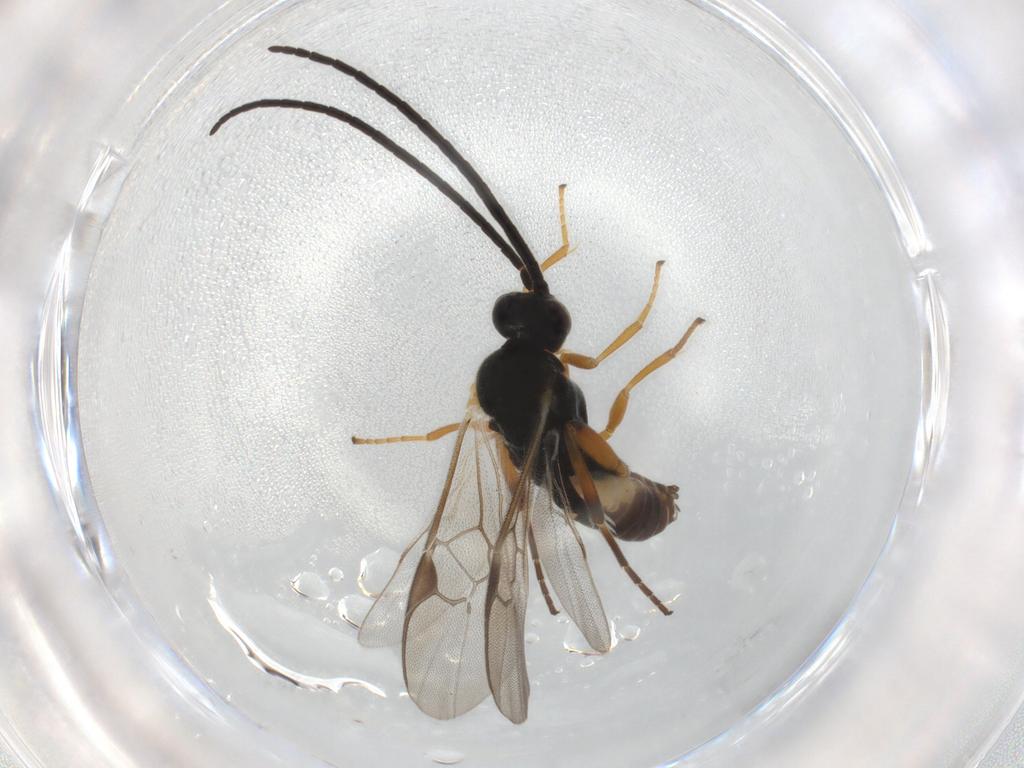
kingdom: Animalia
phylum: Arthropoda
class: Insecta
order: Hymenoptera
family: Braconidae
